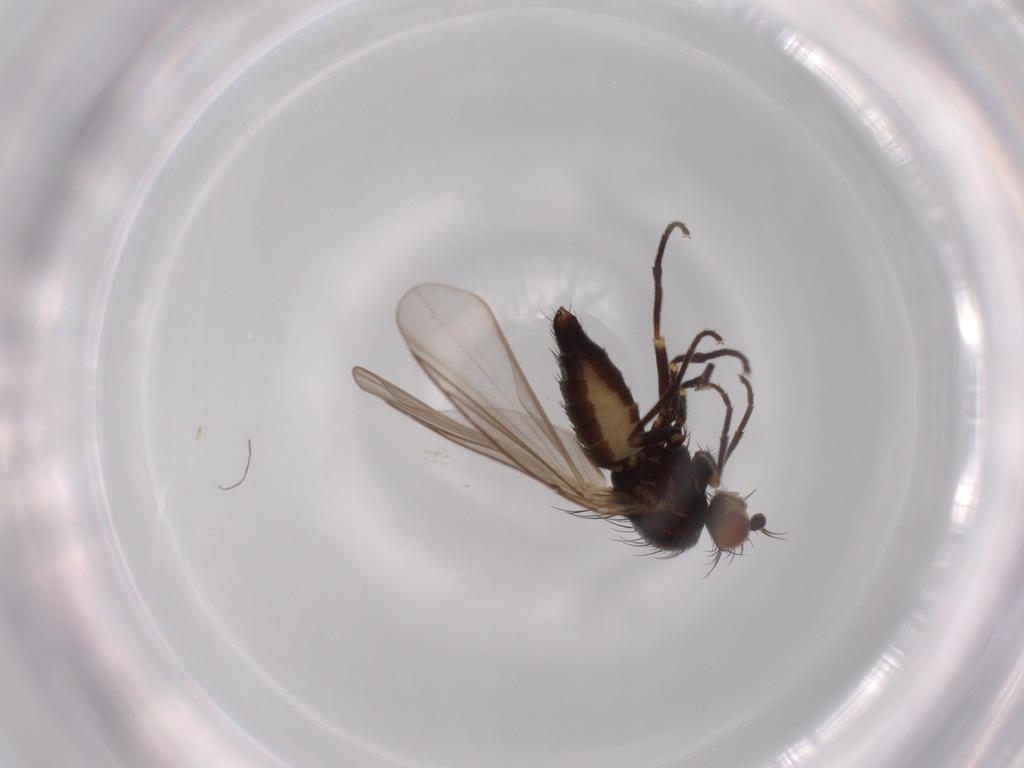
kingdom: Animalia
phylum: Arthropoda
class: Insecta
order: Diptera
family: Agromyzidae
